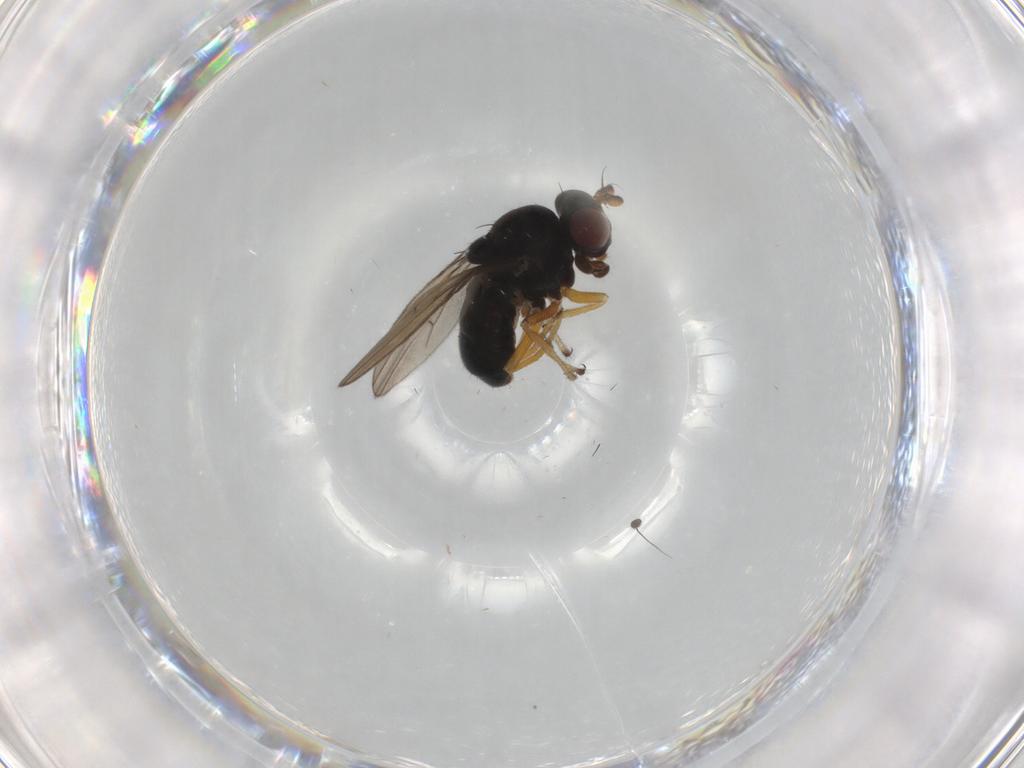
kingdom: Animalia
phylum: Arthropoda
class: Insecta
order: Diptera
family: Ephydridae
